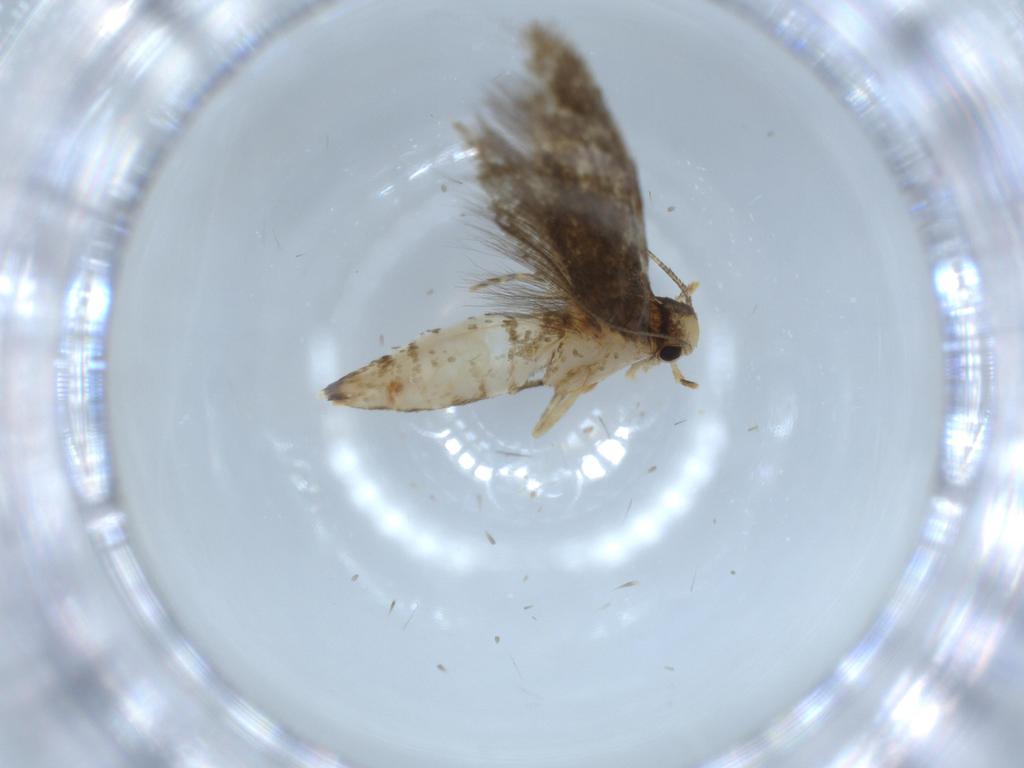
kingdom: Animalia
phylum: Arthropoda
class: Insecta
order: Lepidoptera
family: Tineidae
